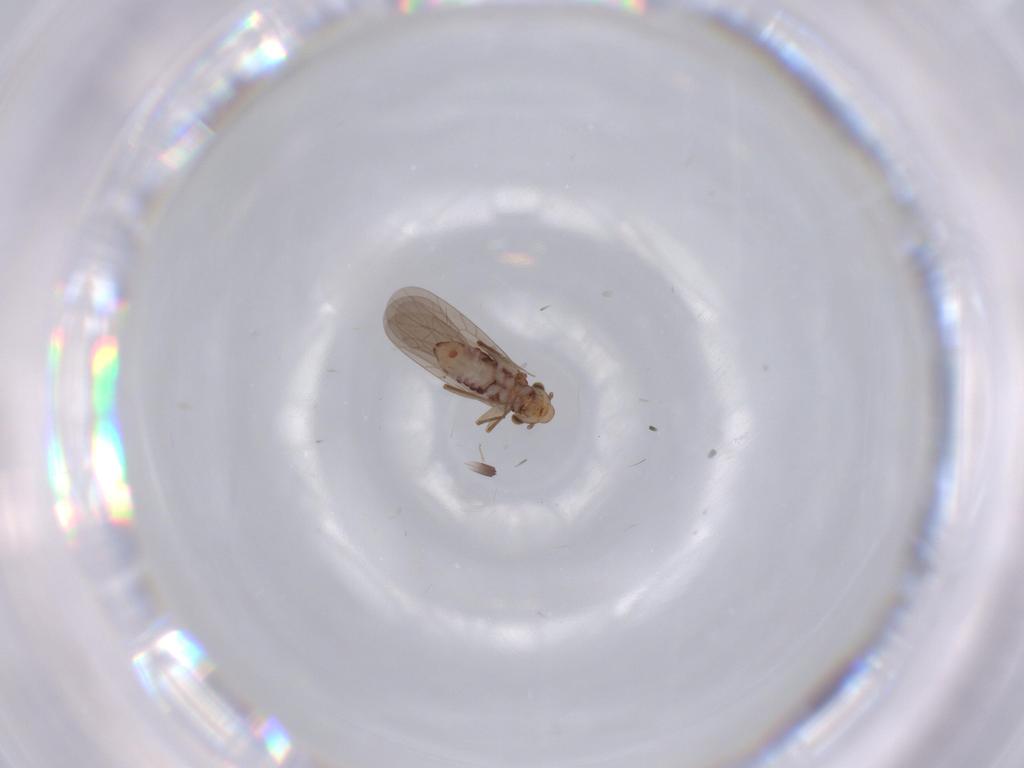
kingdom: Animalia
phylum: Arthropoda
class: Insecta
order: Psocodea
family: Lepidopsocidae
